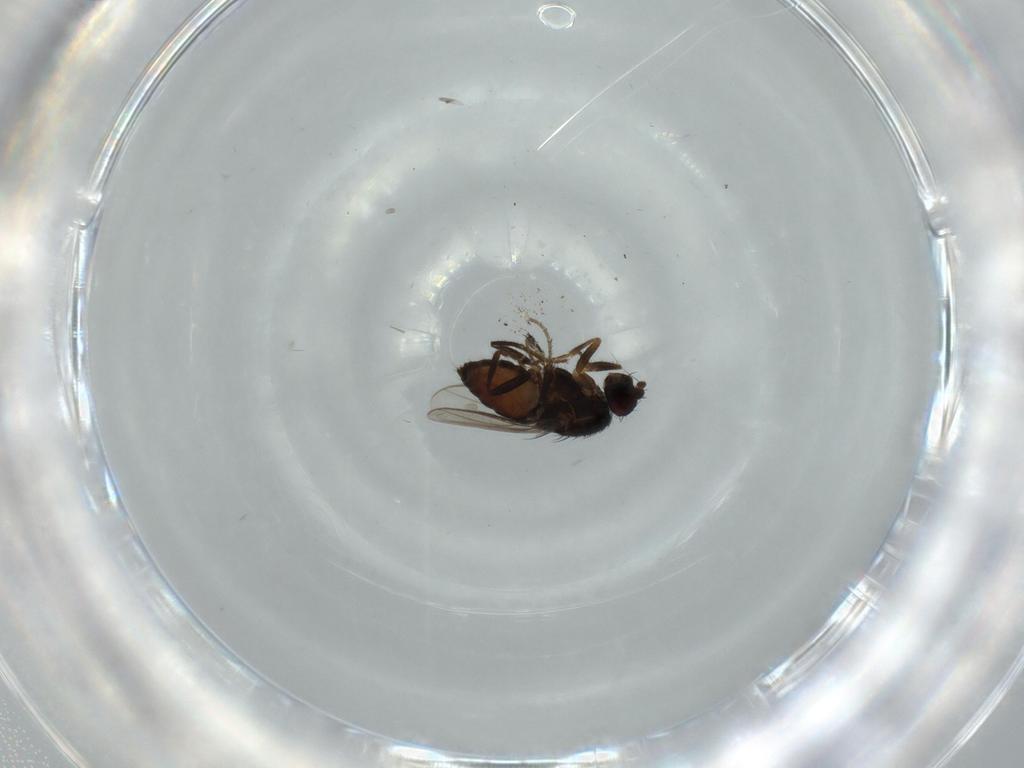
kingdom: Animalia
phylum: Arthropoda
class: Insecta
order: Diptera
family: Sphaeroceridae
